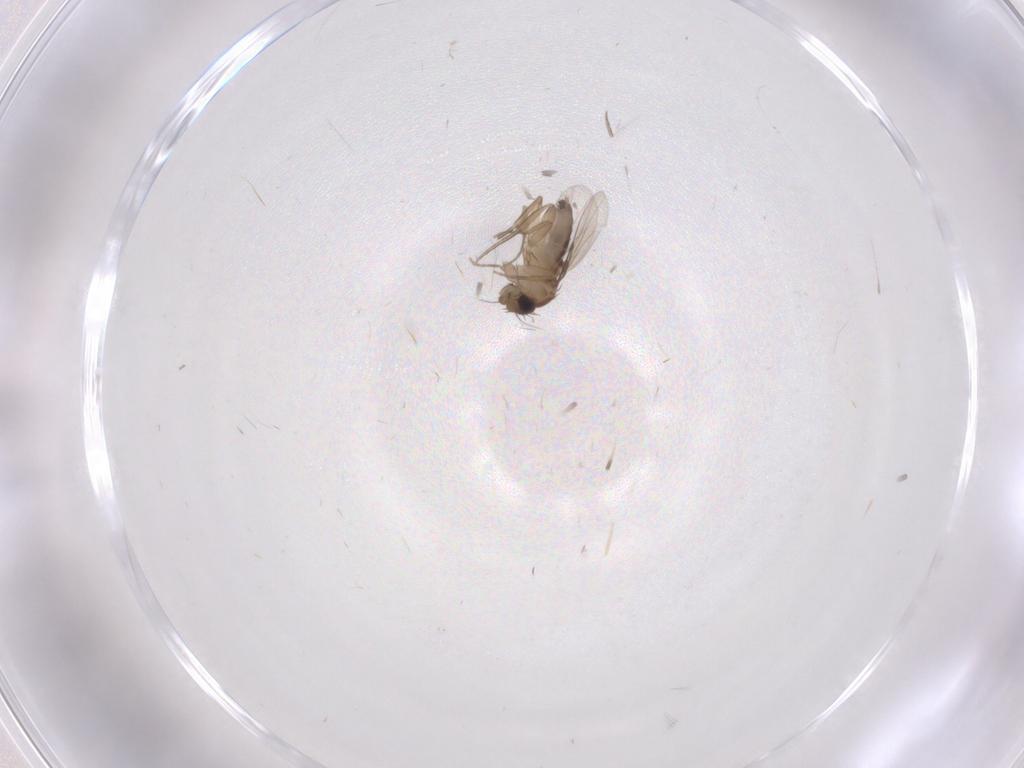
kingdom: Animalia
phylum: Arthropoda
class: Insecta
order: Diptera
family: Phoridae
